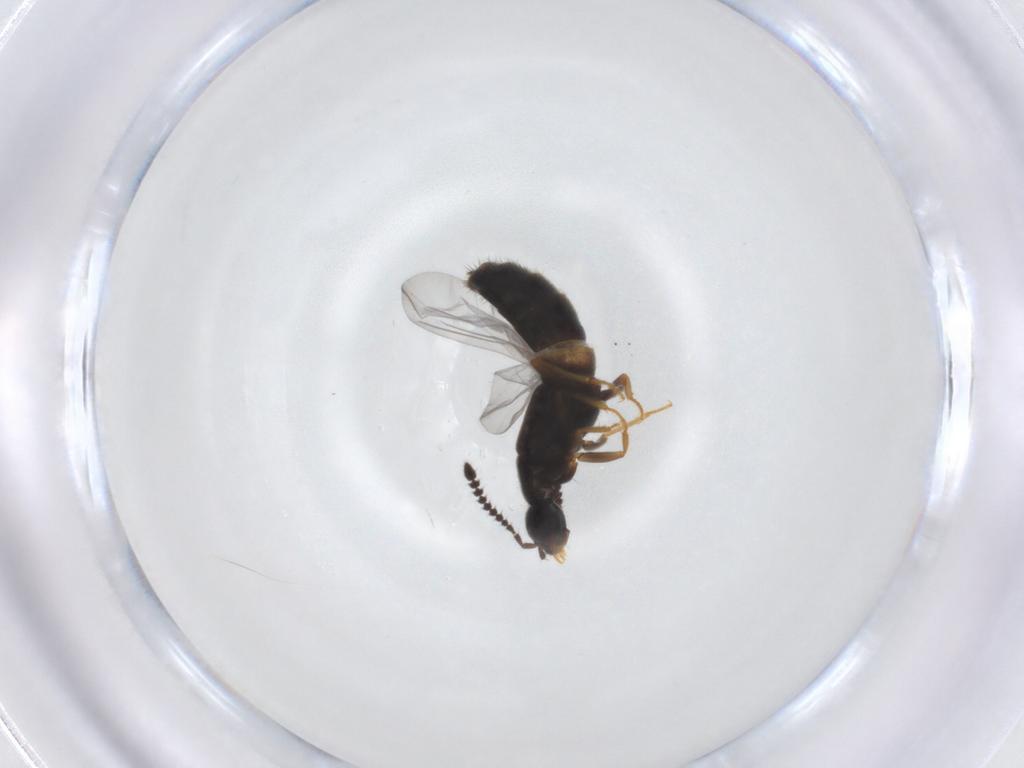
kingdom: Animalia
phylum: Arthropoda
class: Insecta
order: Coleoptera
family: Staphylinidae
